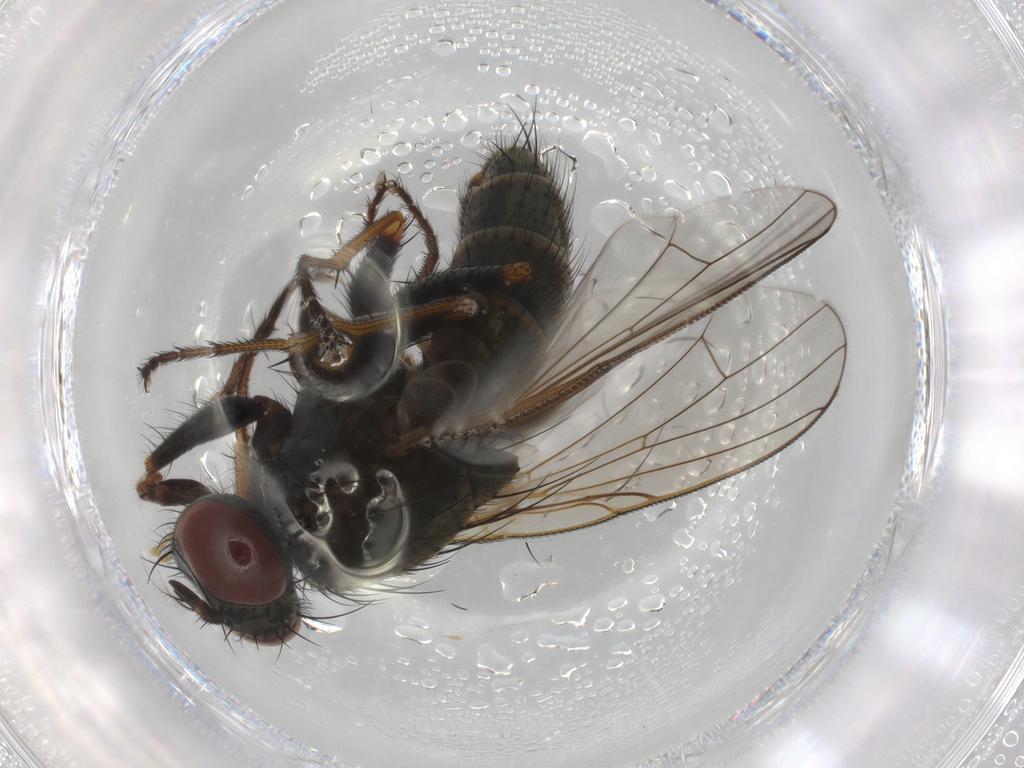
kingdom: Animalia
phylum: Arthropoda
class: Insecta
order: Diptera
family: Muscidae
